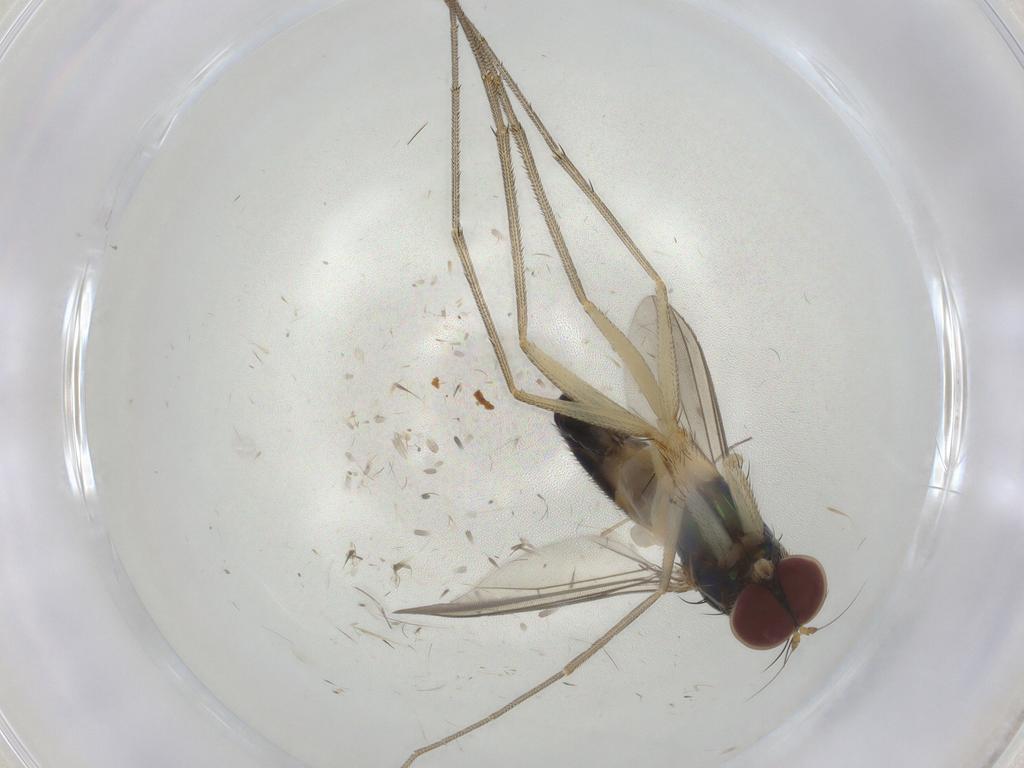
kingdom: Animalia
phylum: Arthropoda
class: Insecta
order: Diptera
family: Dolichopodidae
